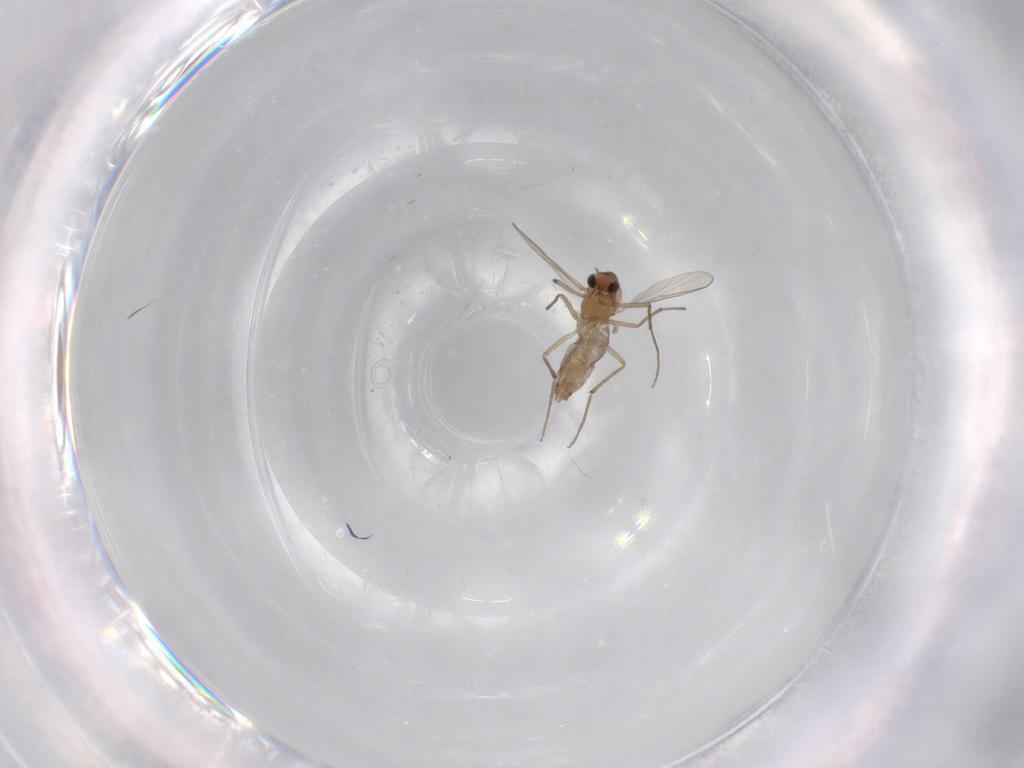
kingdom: Animalia
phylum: Arthropoda
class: Insecta
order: Diptera
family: Chironomidae
